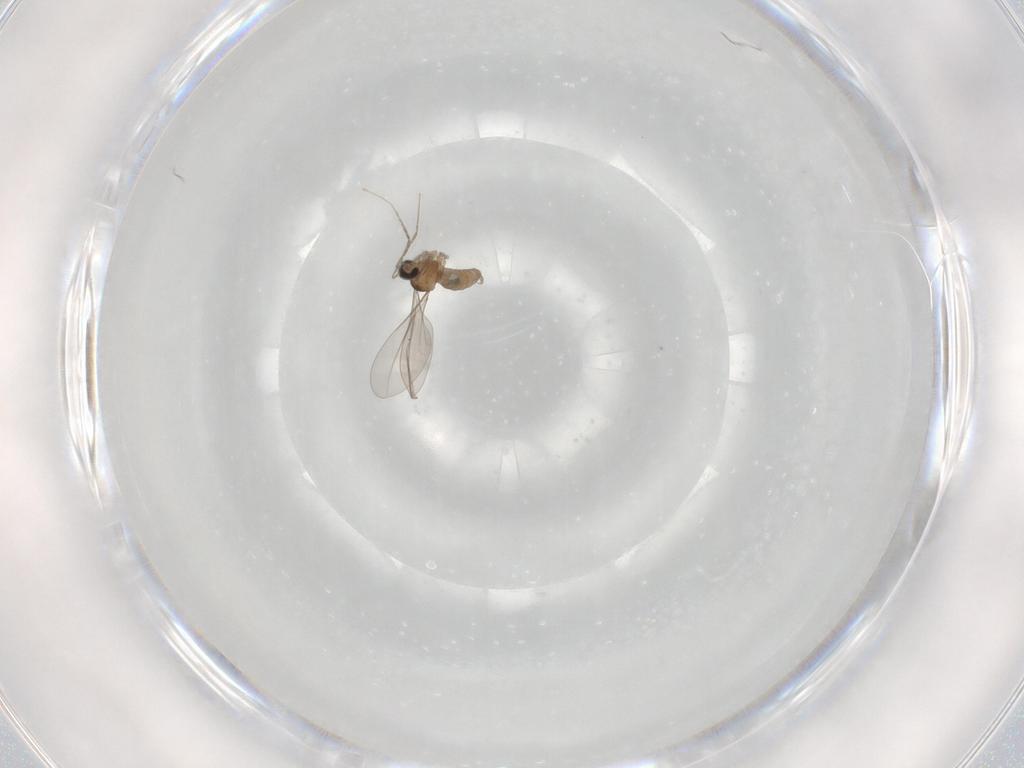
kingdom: Animalia
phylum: Arthropoda
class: Insecta
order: Diptera
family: Cecidomyiidae
